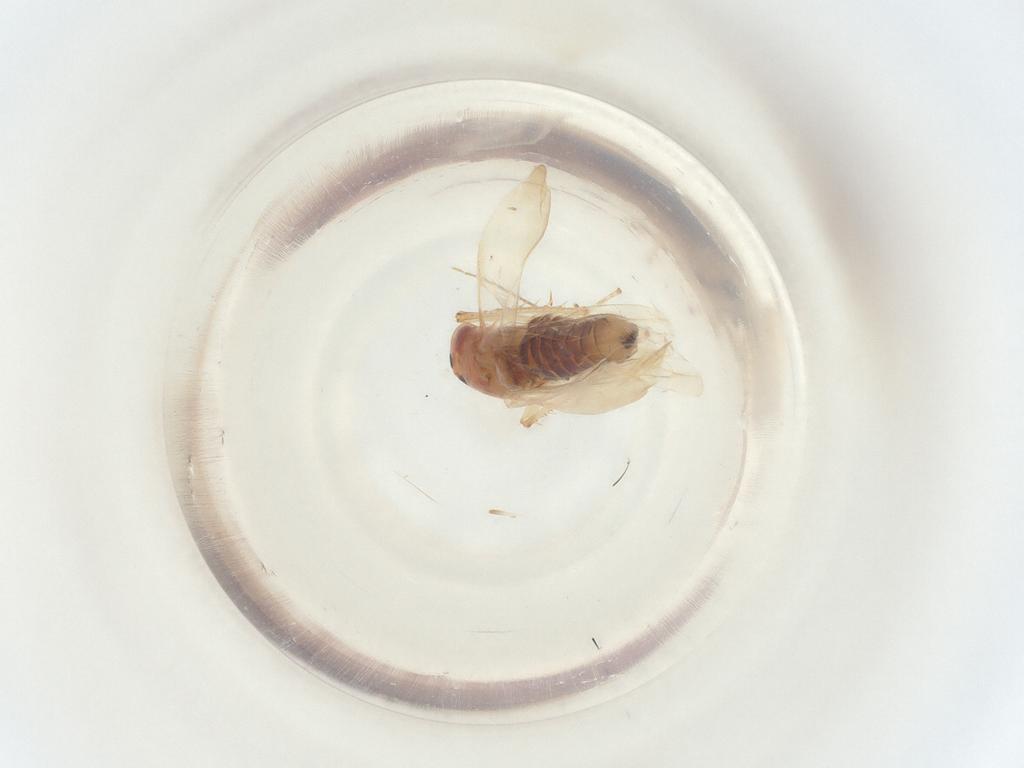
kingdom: Animalia
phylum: Arthropoda
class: Insecta
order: Hemiptera
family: Cicadellidae
